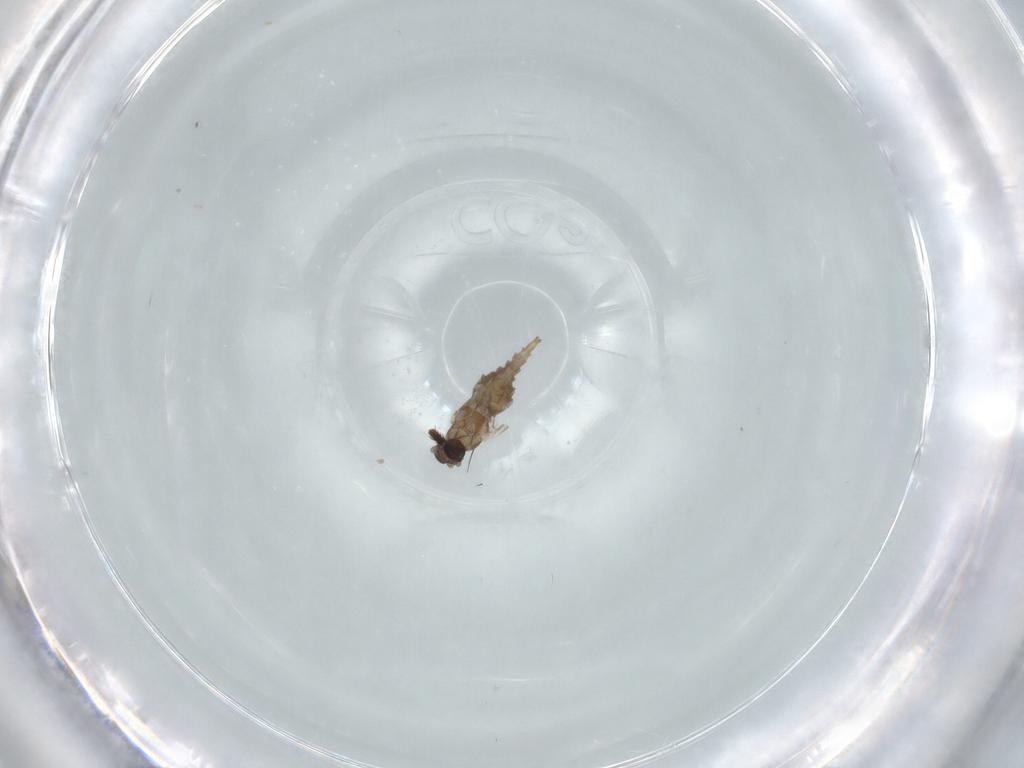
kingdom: Animalia
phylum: Arthropoda
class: Insecta
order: Diptera
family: Cecidomyiidae
